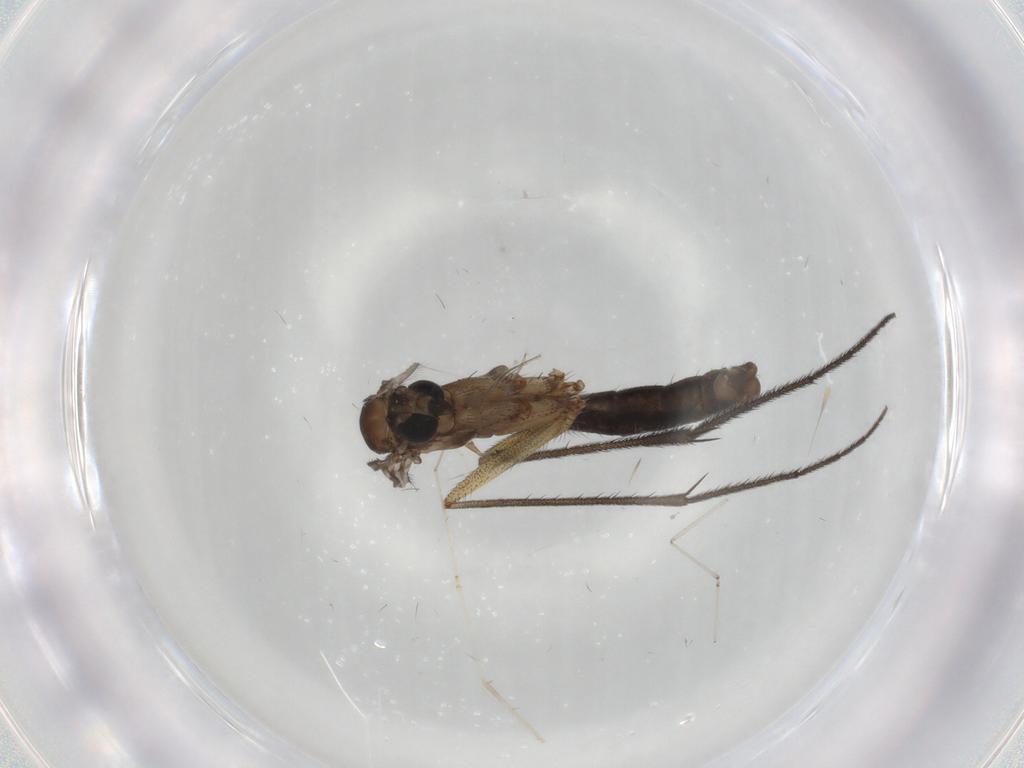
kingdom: Animalia
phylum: Arthropoda
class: Insecta
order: Diptera
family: Ditomyiidae
